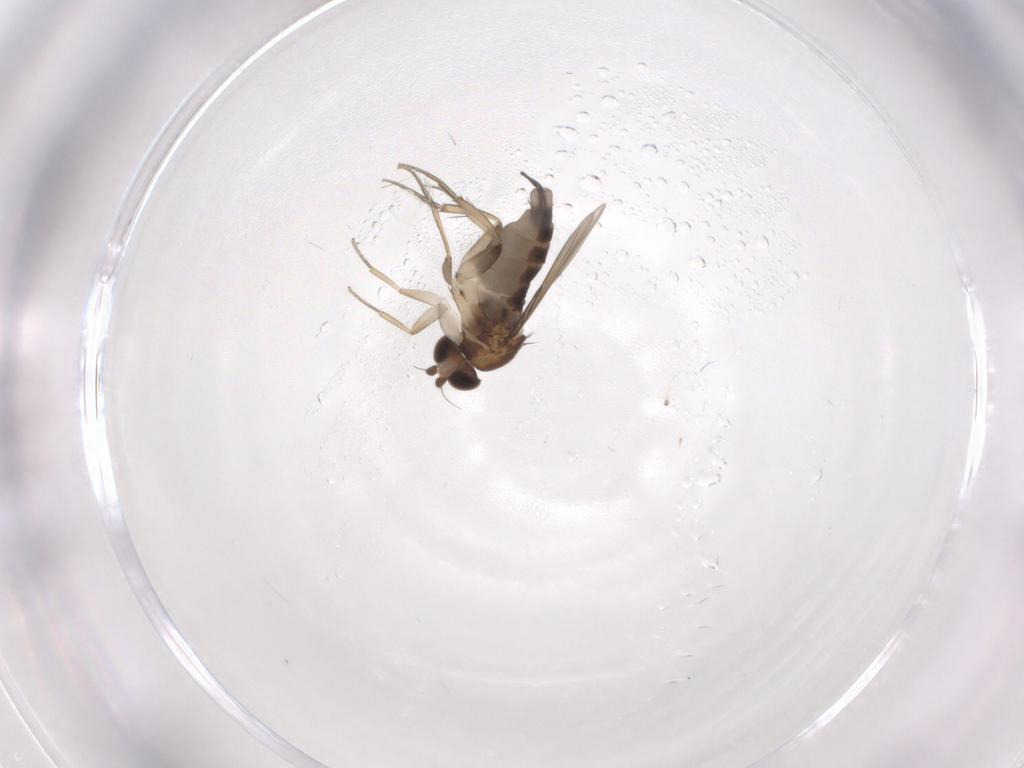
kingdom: Animalia
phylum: Arthropoda
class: Insecta
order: Diptera
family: Phoridae
